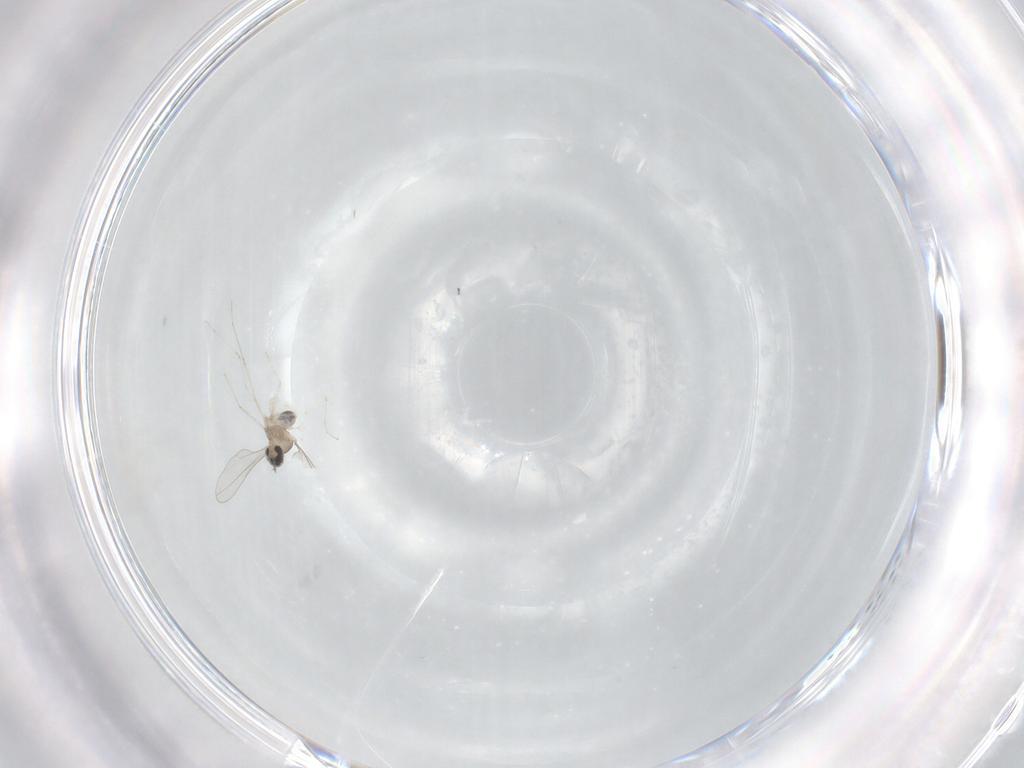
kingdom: Animalia
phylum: Arthropoda
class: Insecta
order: Diptera
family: Cecidomyiidae
